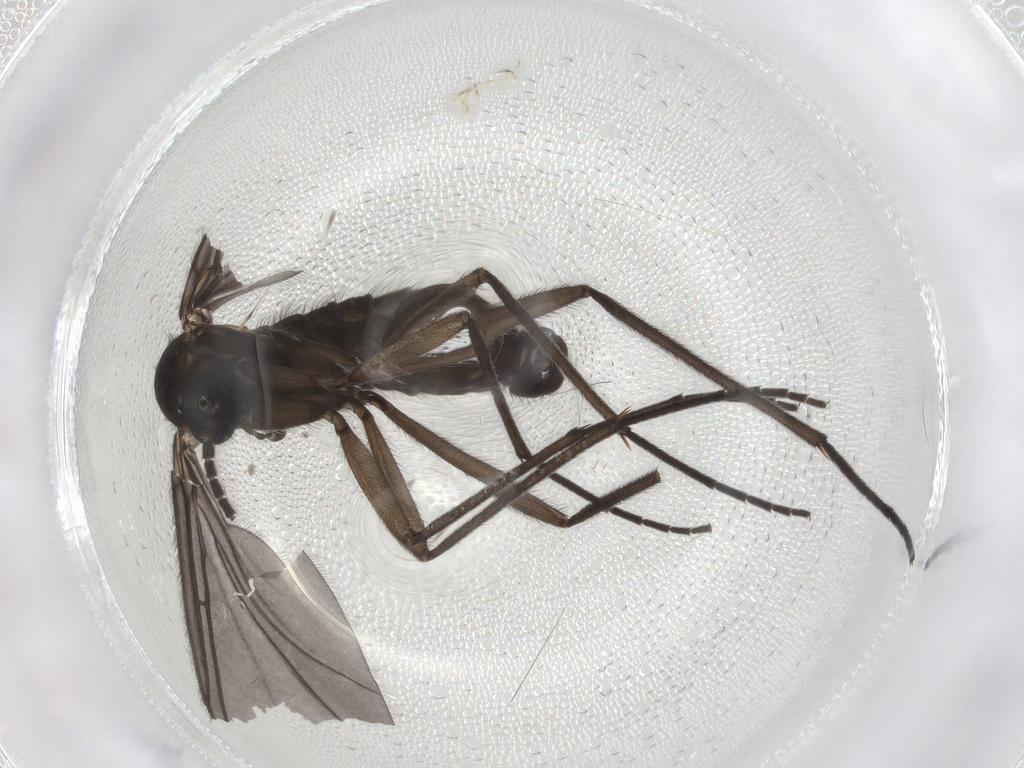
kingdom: Animalia
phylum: Arthropoda
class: Insecta
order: Diptera
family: Sciaridae
